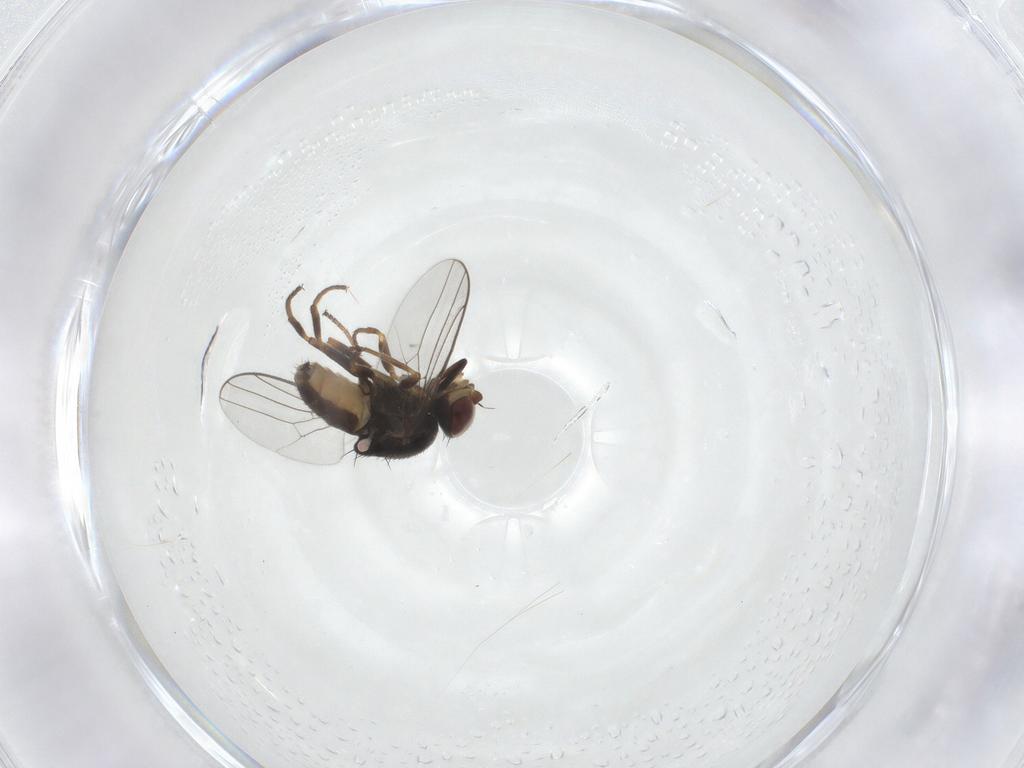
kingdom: Animalia
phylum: Arthropoda
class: Insecta
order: Diptera
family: Chloropidae
